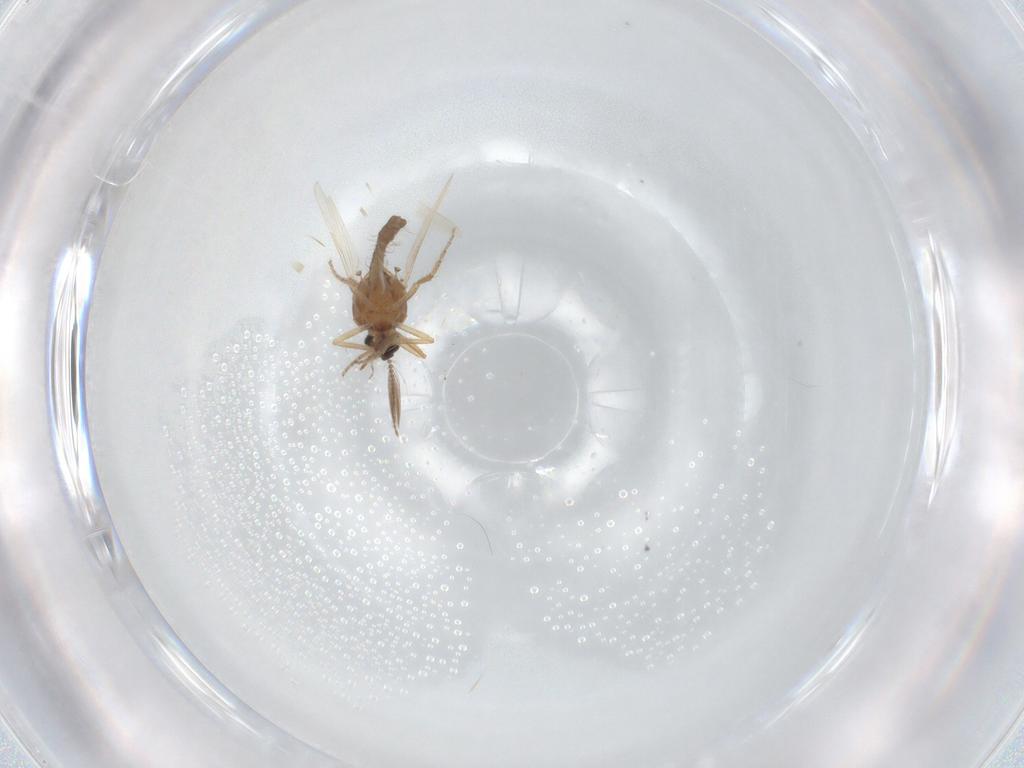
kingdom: Animalia
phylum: Arthropoda
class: Insecta
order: Diptera
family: Ceratopogonidae
